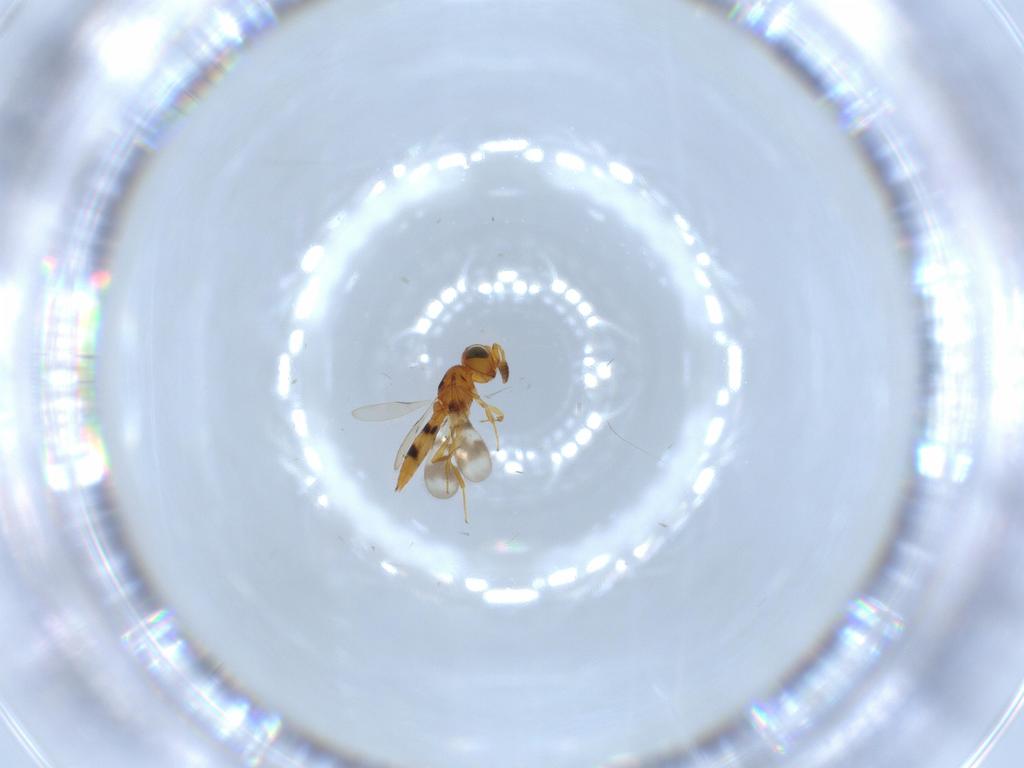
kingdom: Animalia
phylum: Arthropoda
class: Insecta
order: Hymenoptera
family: Scelionidae
